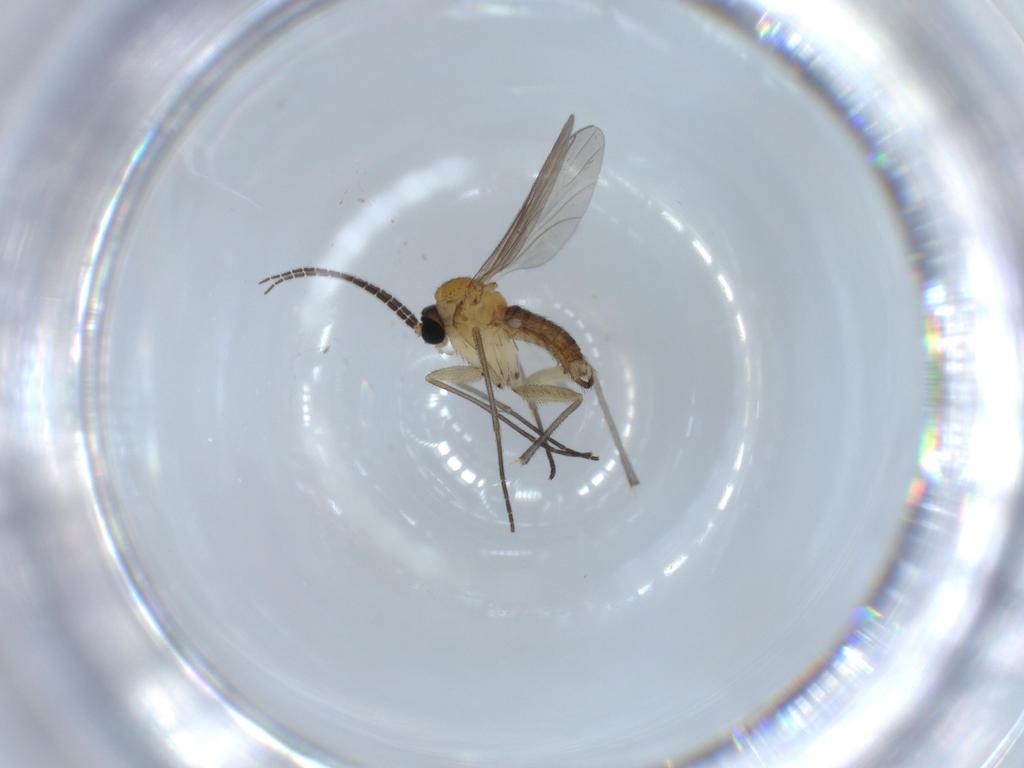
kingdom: Animalia
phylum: Arthropoda
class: Insecta
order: Diptera
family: Sciaridae
